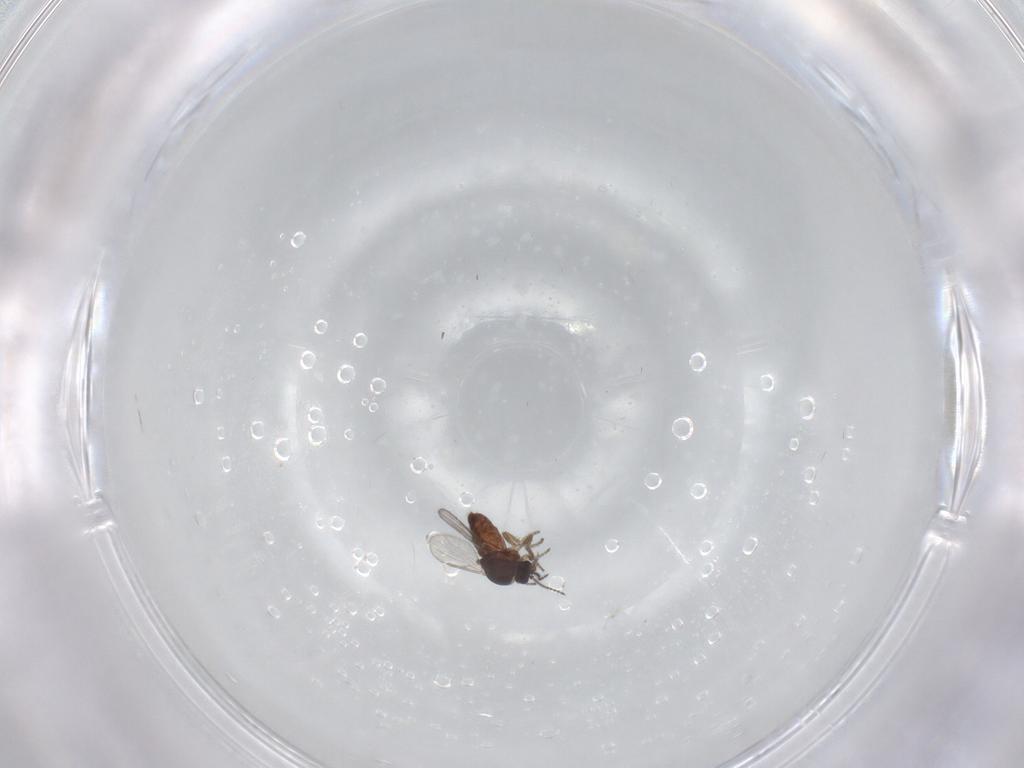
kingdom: Animalia
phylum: Arthropoda
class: Insecta
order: Diptera
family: Ceratopogonidae
